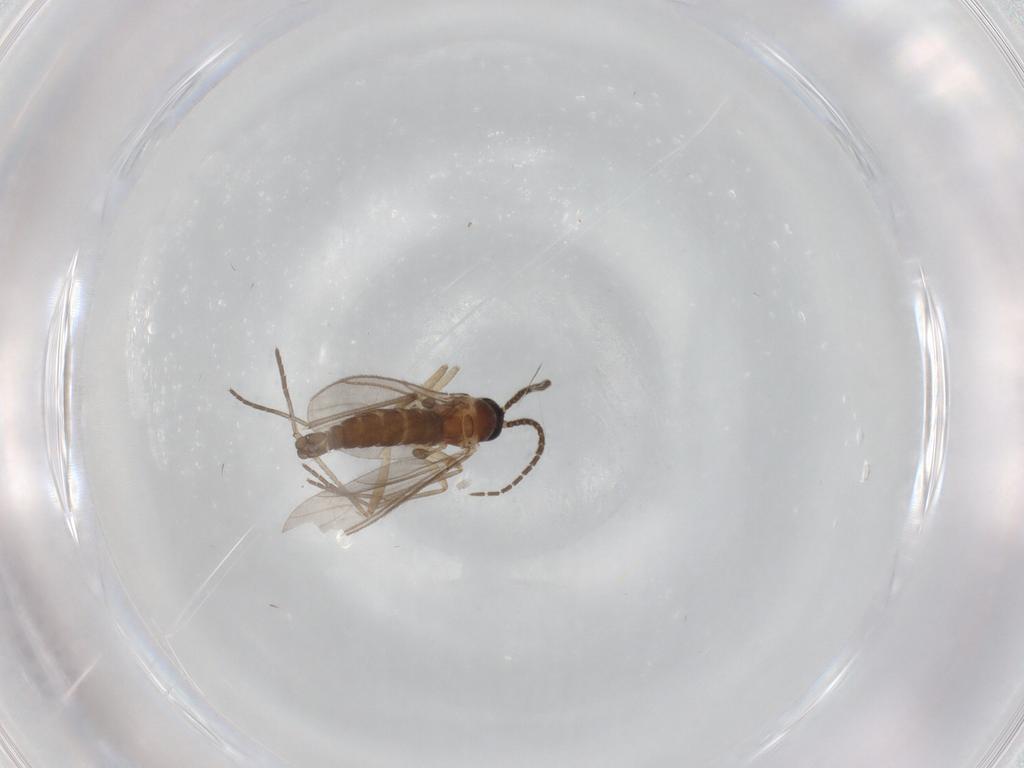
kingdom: Animalia
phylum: Arthropoda
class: Insecta
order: Diptera
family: Sciaridae
